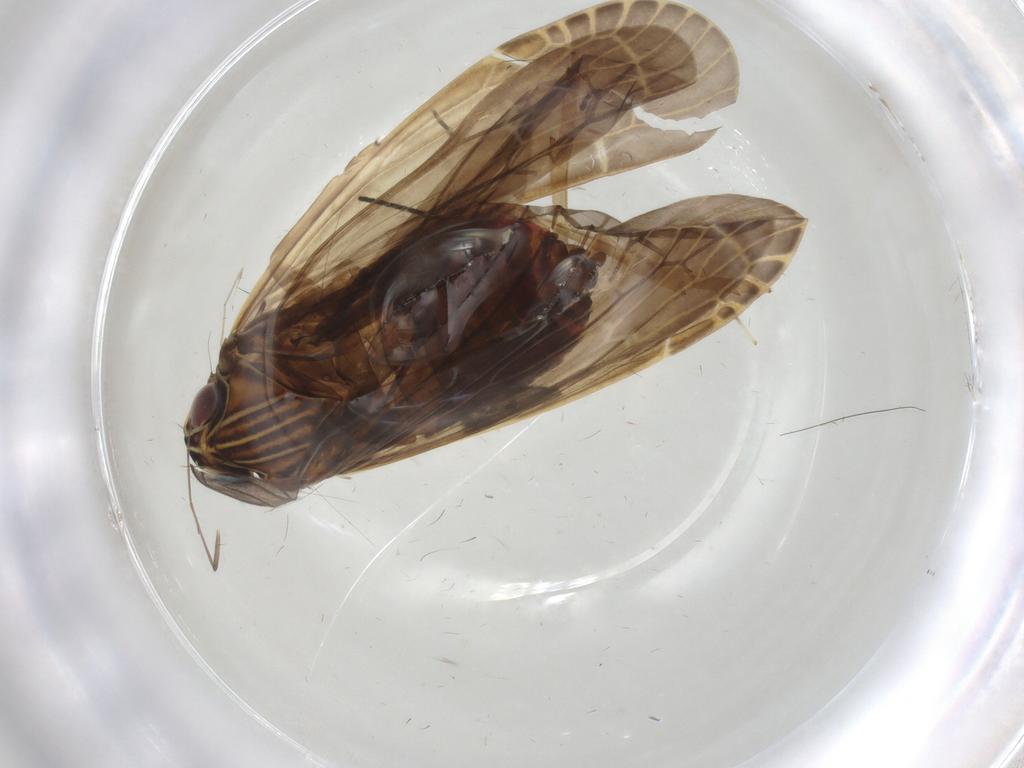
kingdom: Animalia
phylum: Arthropoda
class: Insecta
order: Hemiptera
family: Achilidae
